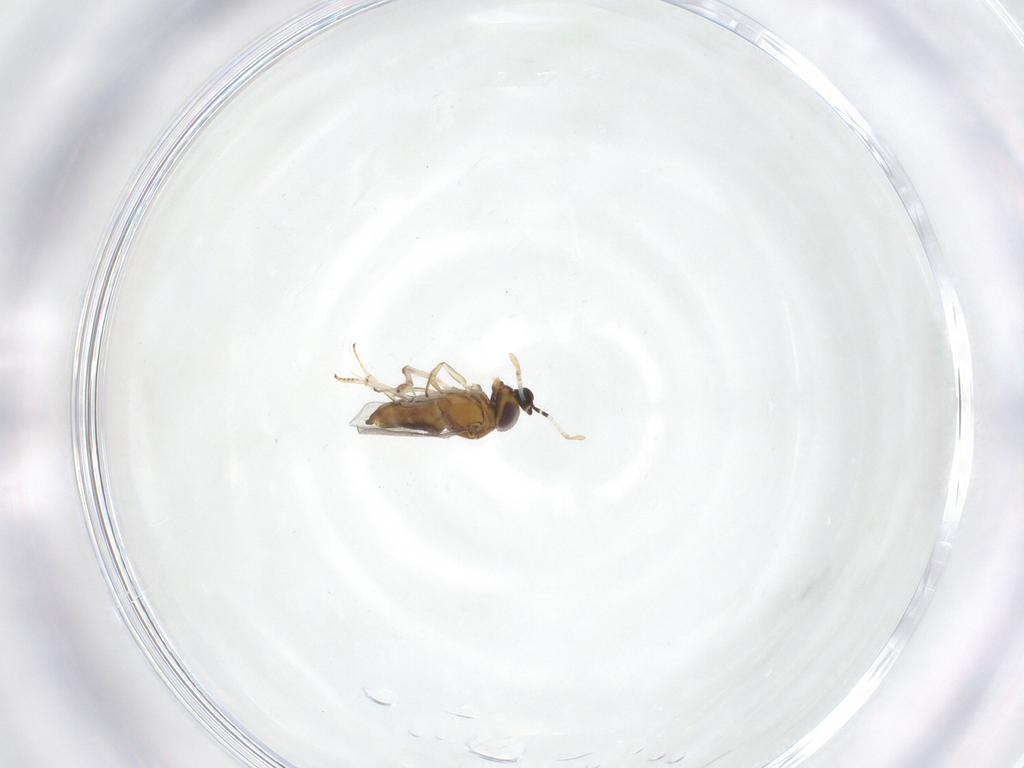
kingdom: Animalia
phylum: Arthropoda
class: Insecta
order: Hymenoptera
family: Encyrtidae
